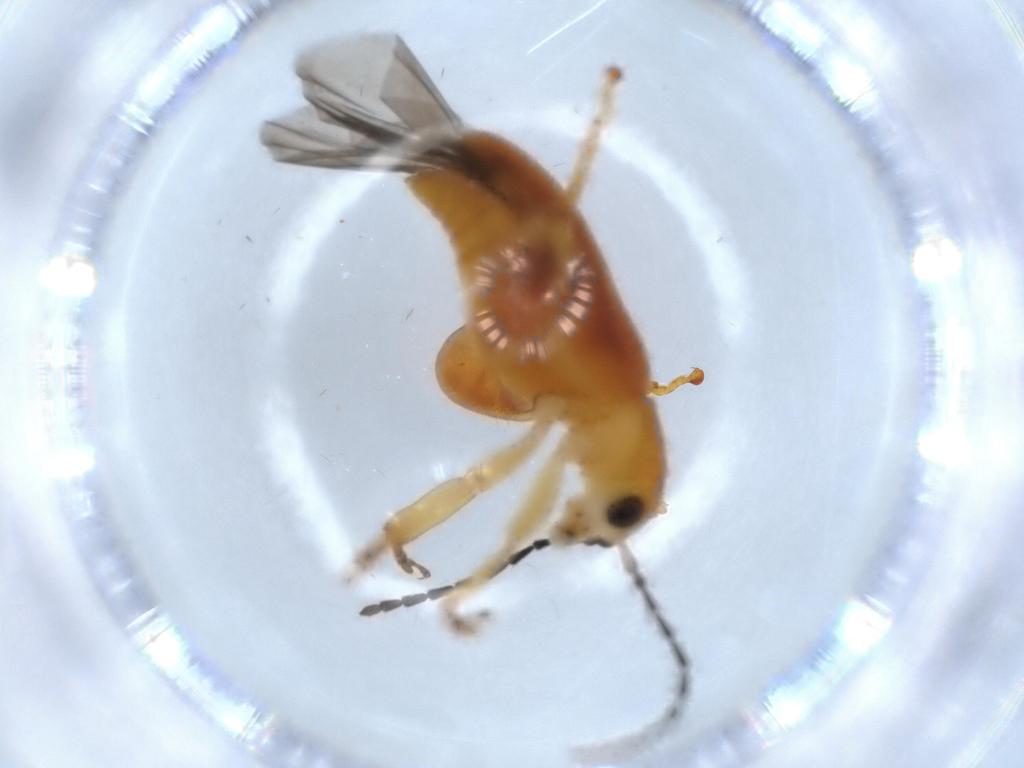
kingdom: Animalia
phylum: Arthropoda
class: Insecta
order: Coleoptera
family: Chrysomelidae
